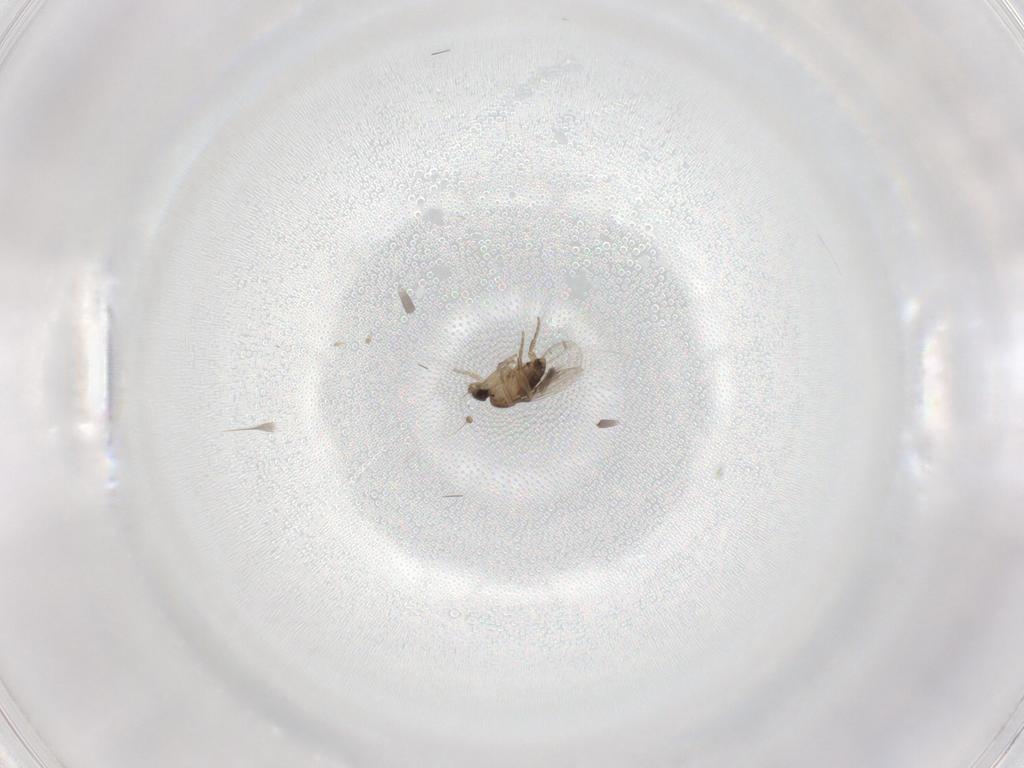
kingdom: Animalia
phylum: Arthropoda
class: Insecta
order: Diptera
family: Phoridae
